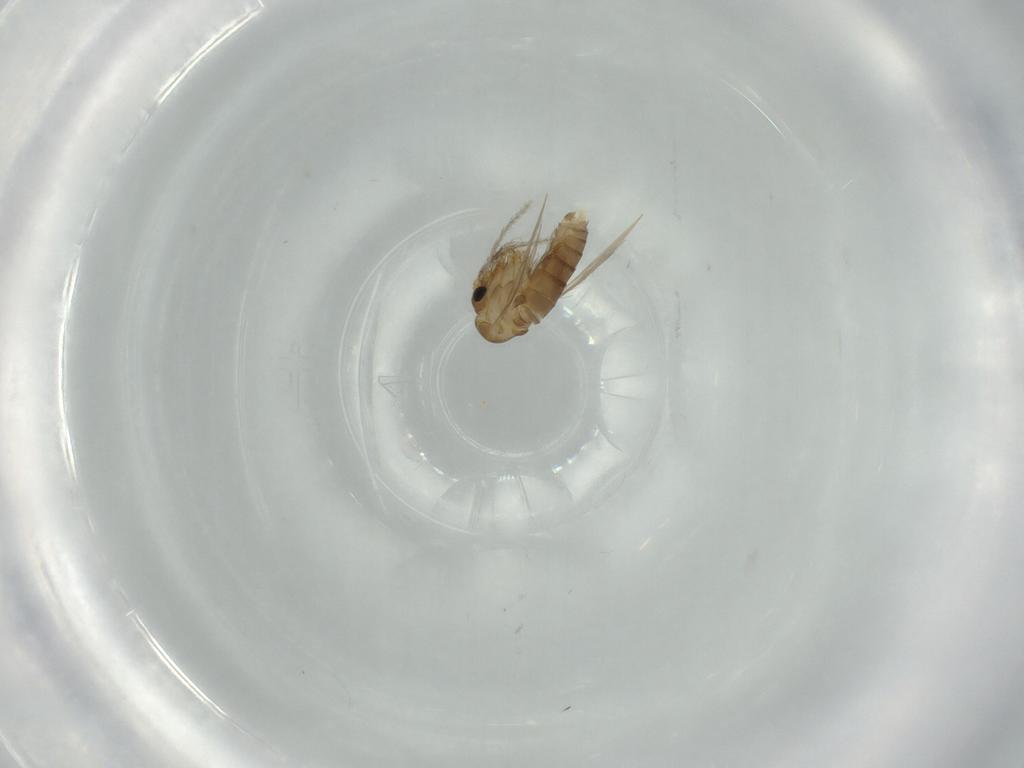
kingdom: Animalia
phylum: Arthropoda
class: Insecta
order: Diptera
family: Psychodidae
